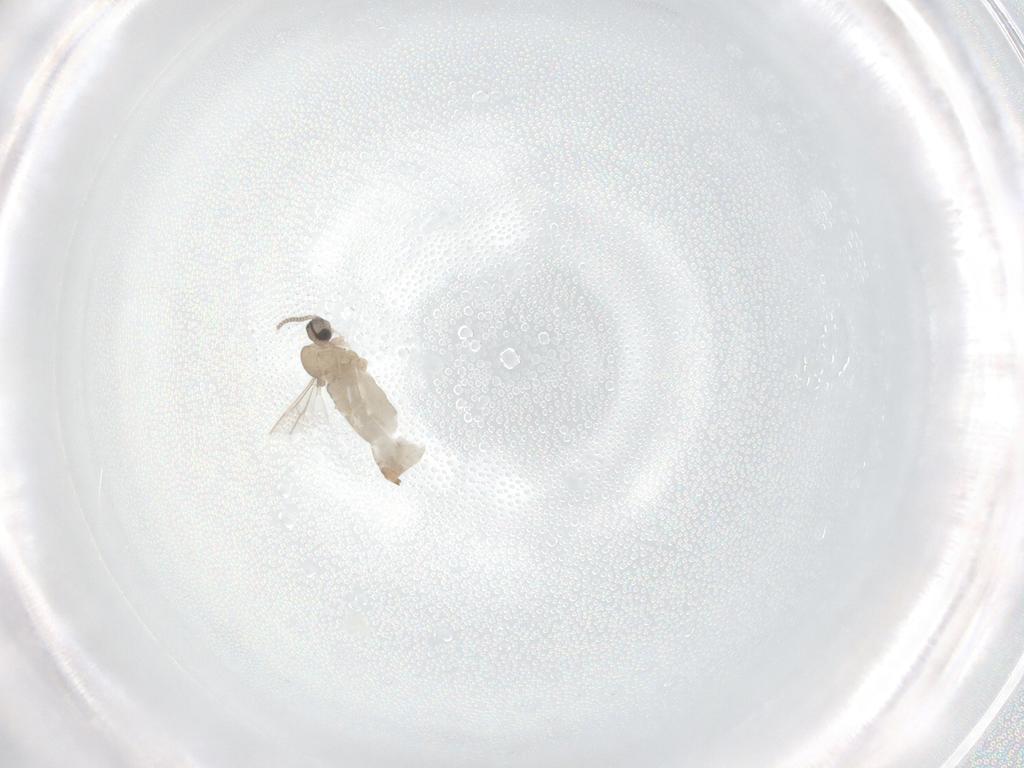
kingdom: Animalia
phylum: Arthropoda
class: Insecta
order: Diptera
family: Cecidomyiidae
